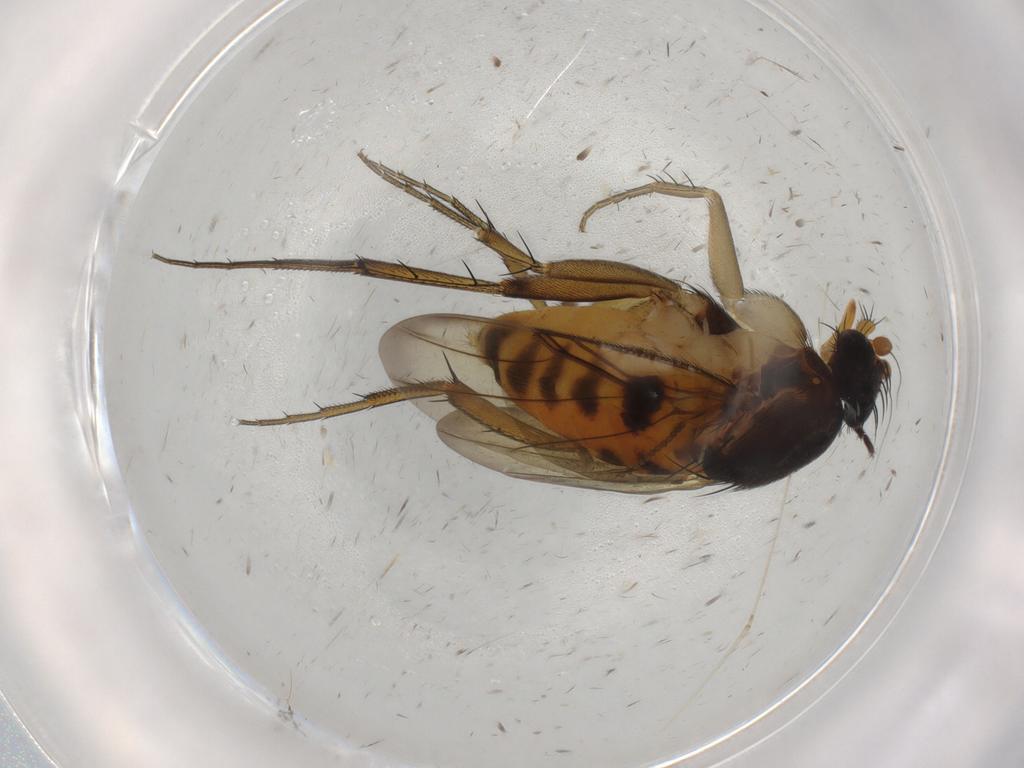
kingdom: Animalia
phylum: Arthropoda
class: Insecta
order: Diptera
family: Phoridae
